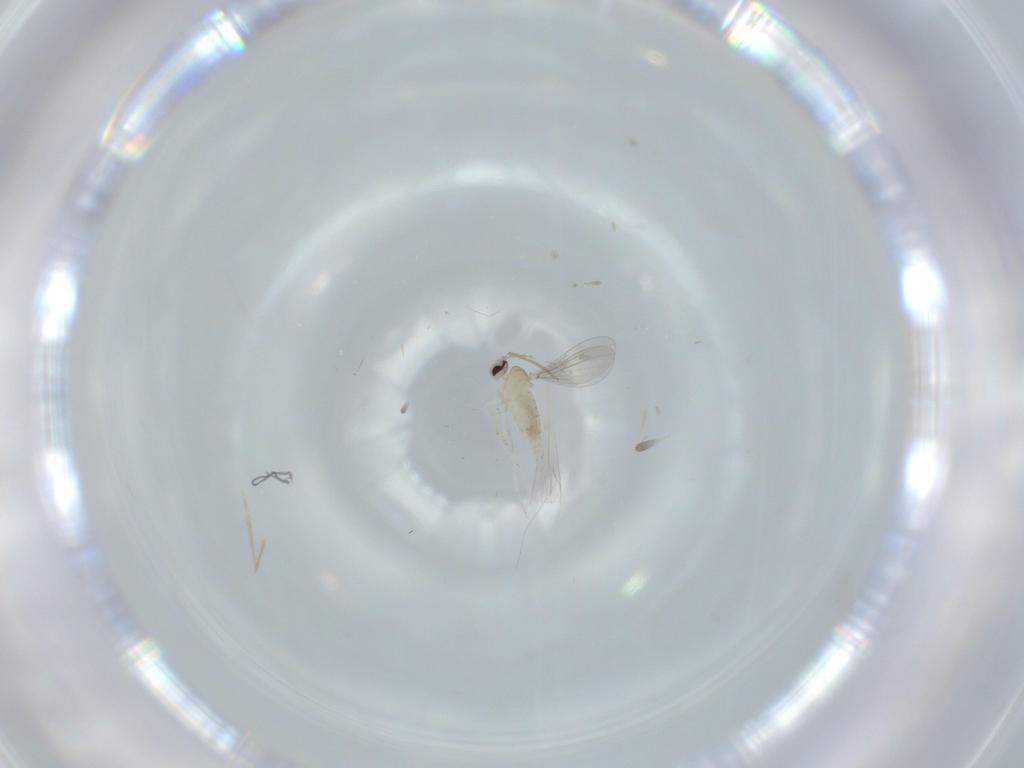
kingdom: Animalia
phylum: Arthropoda
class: Insecta
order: Diptera
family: Cecidomyiidae
